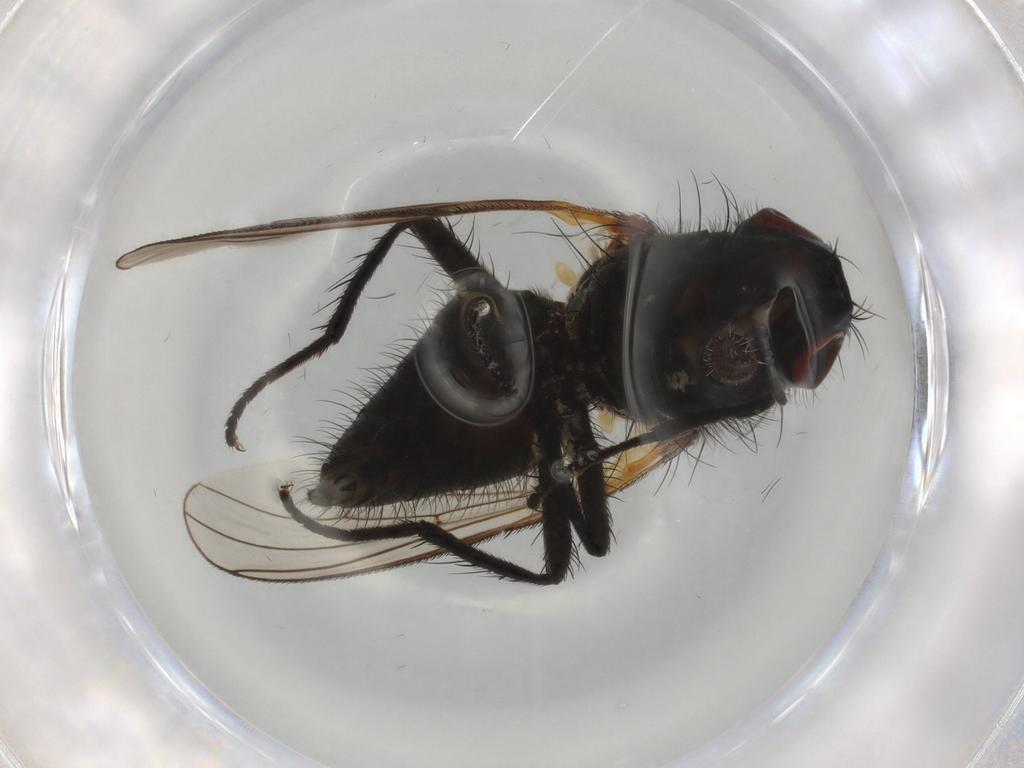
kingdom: Animalia
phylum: Arthropoda
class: Insecta
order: Diptera
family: Anthomyiidae
